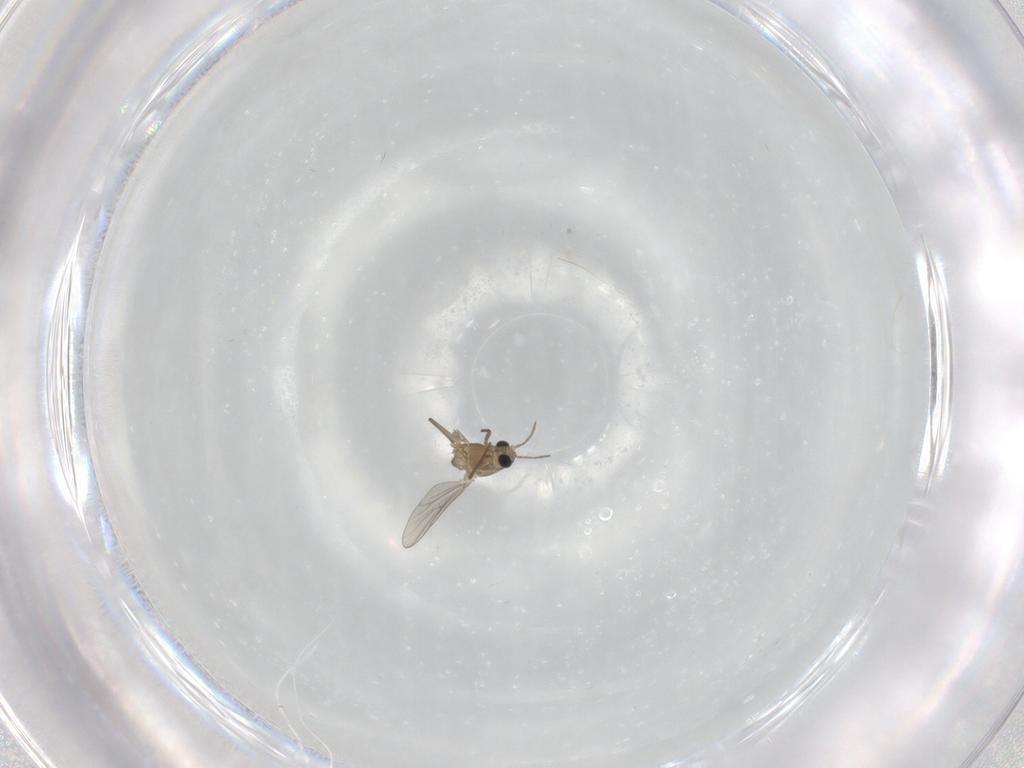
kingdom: Animalia
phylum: Arthropoda
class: Insecta
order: Diptera
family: Chironomidae
